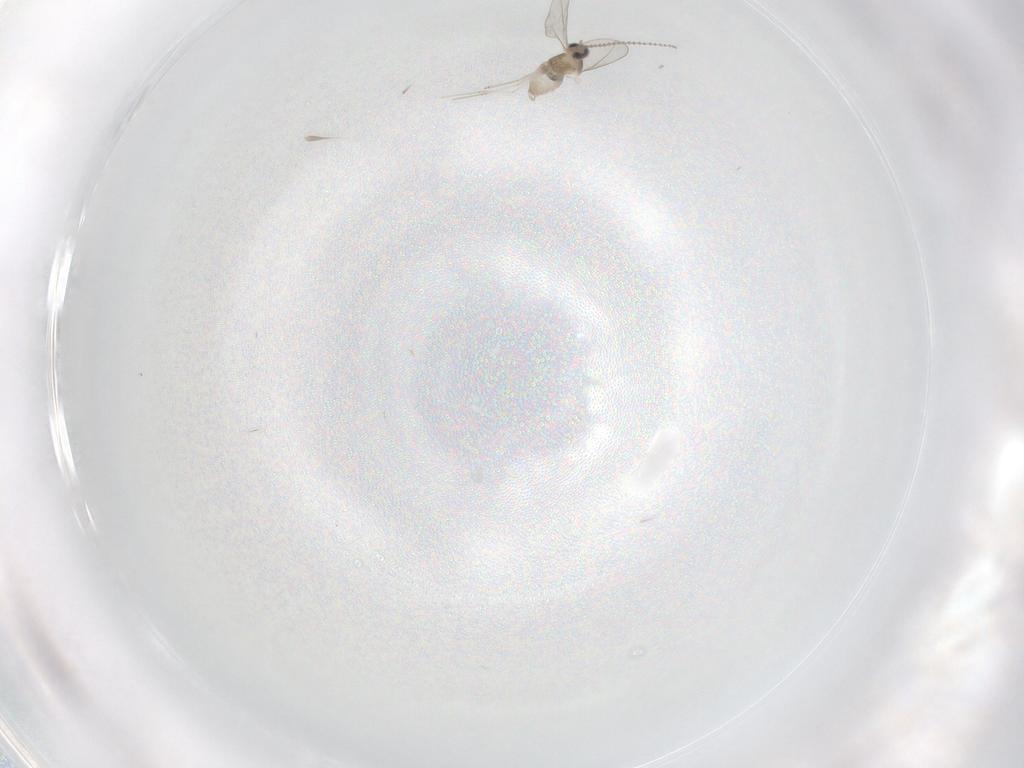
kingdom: Animalia
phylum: Arthropoda
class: Insecta
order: Diptera
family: Cecidomyiidae
